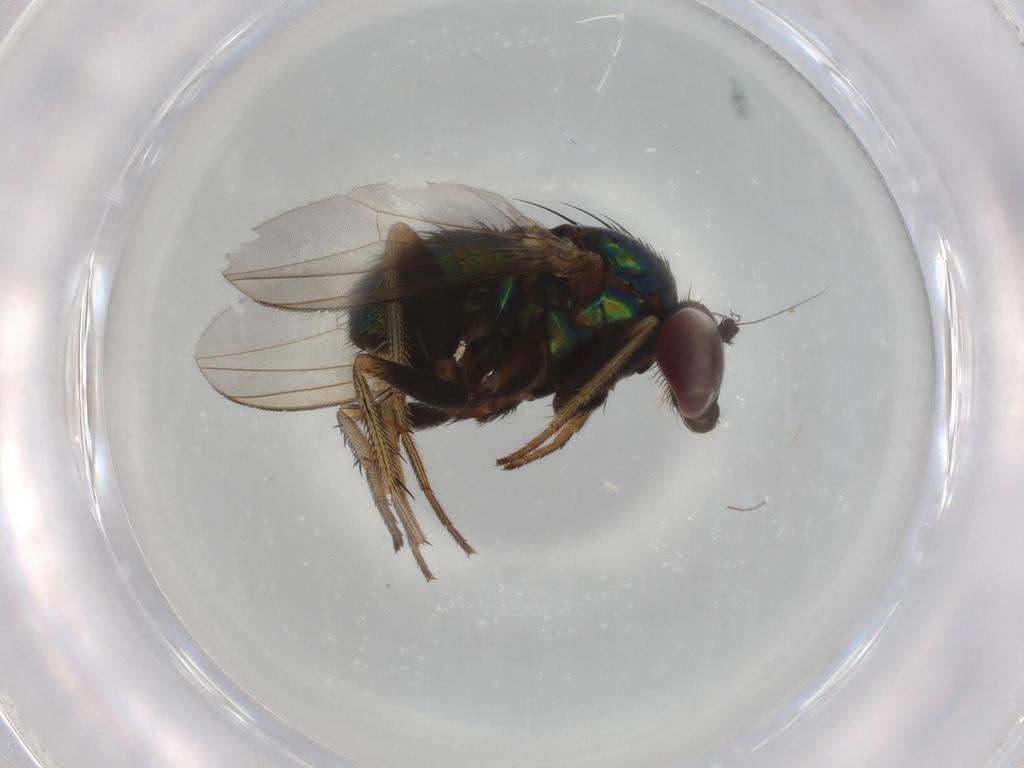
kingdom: Animalia
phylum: Arthropoda
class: Insecta
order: Diptera
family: Dolichopodidae
